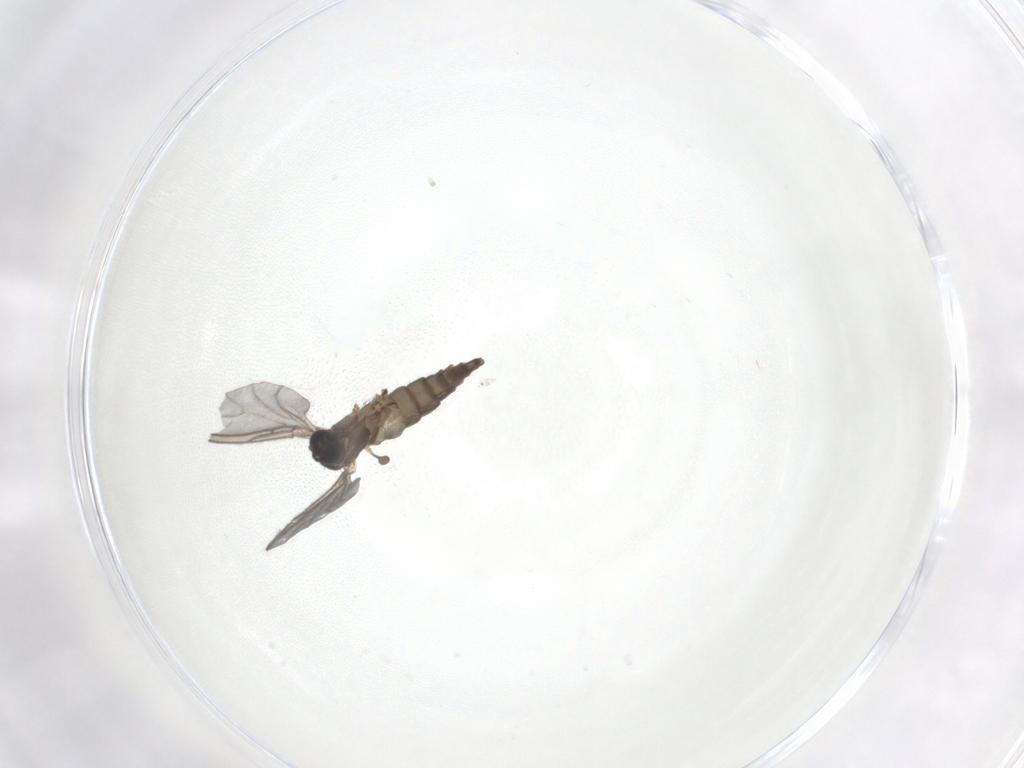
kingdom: Animalia
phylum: Arthropoda
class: Insecta
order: Diptera
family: Sciaridae
